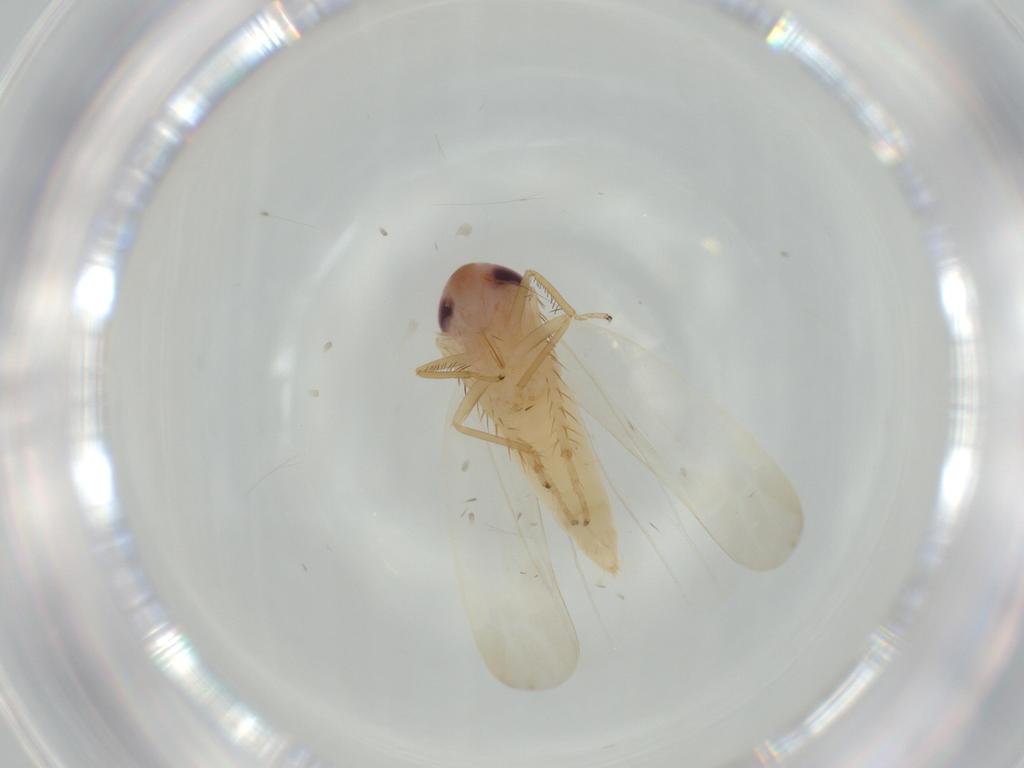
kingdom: Animalia
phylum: Arthropoda
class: Insecta
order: Hemiptera
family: Cicadellidae
